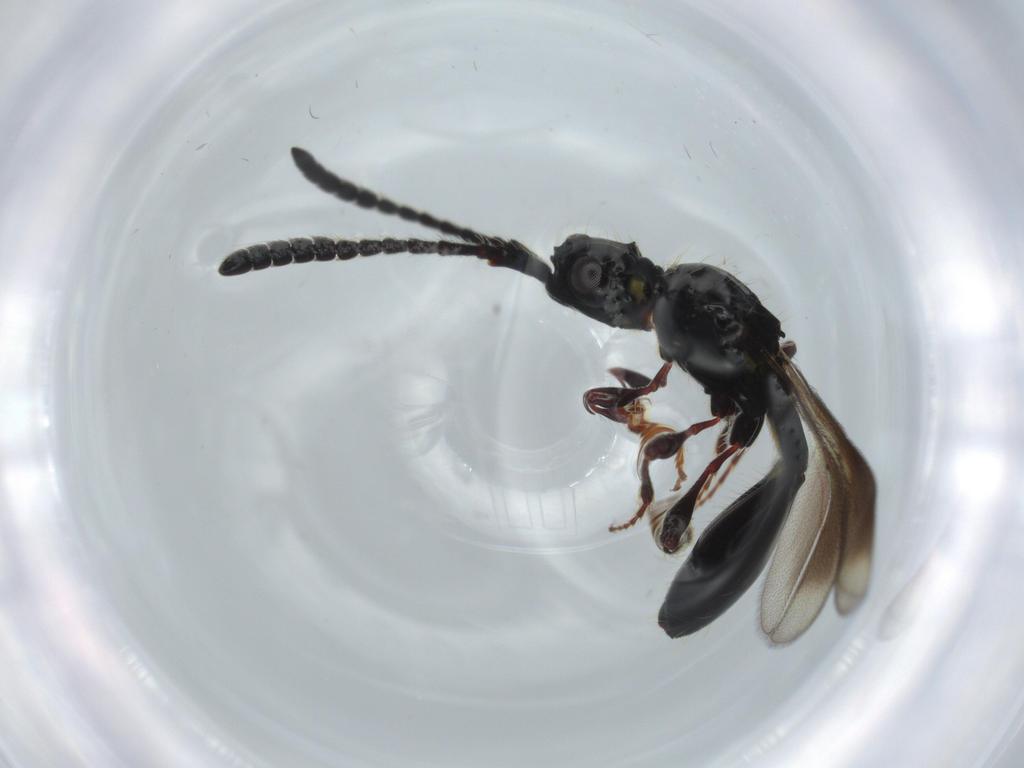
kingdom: Animalia
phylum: Arthropoda
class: Insecta
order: Hymenoptera
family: Diapriidae
